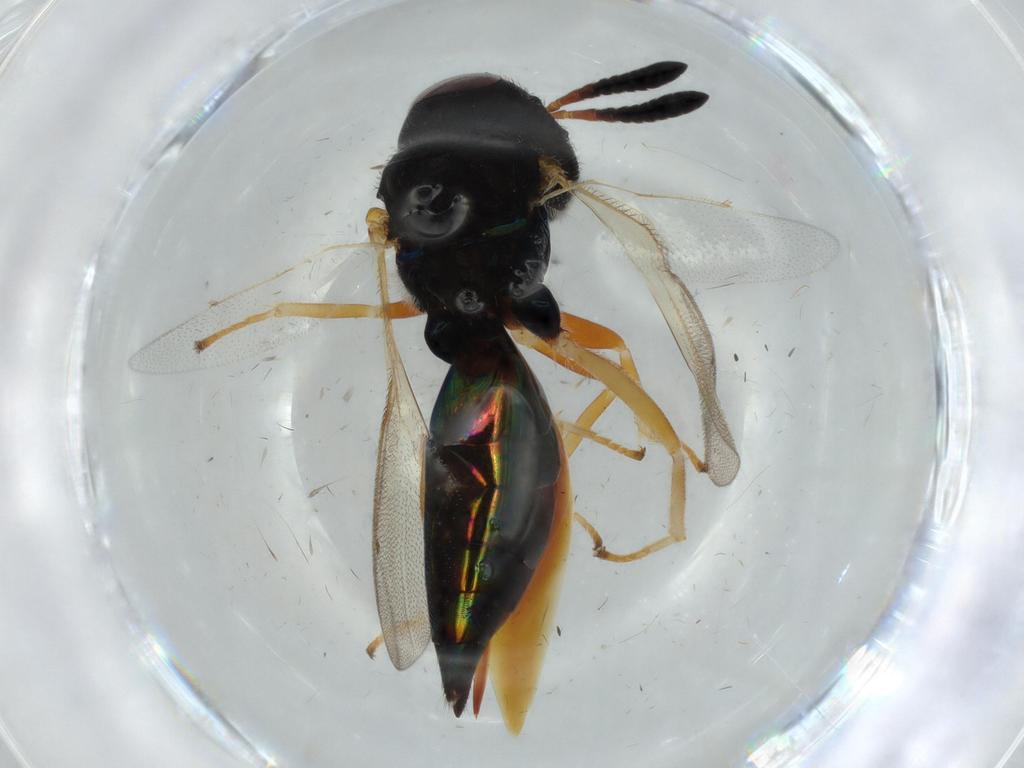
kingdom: Animalia
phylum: Arthropoda
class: Insecta
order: Hymenoptera
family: Pteromalidae
